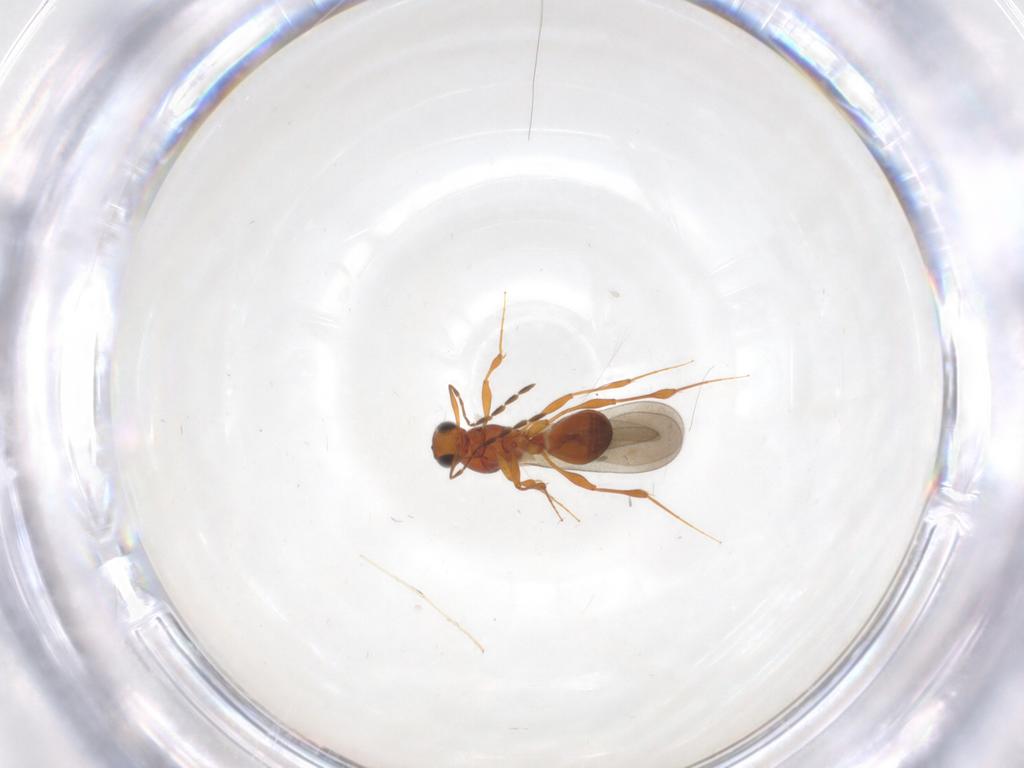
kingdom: Animalia
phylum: Arthropoda
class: Insecta
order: Hymenoptera
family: Platygastridae
